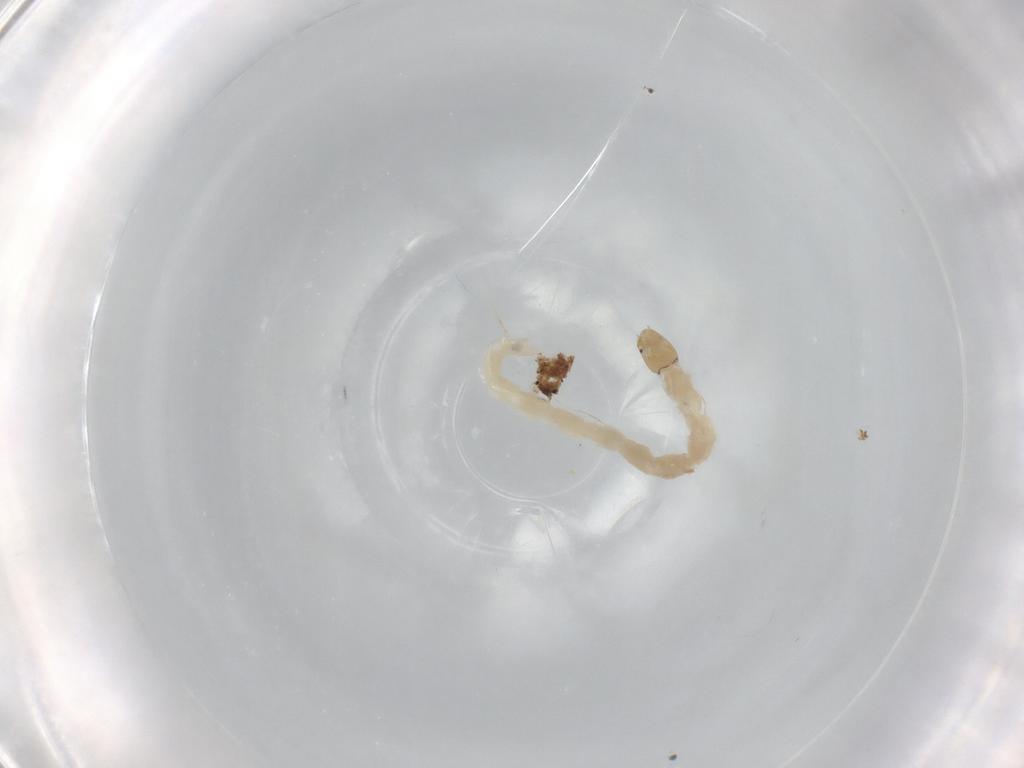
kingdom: Animalia
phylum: Arthropoda
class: Insecta
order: Diptera
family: Chironomidae
